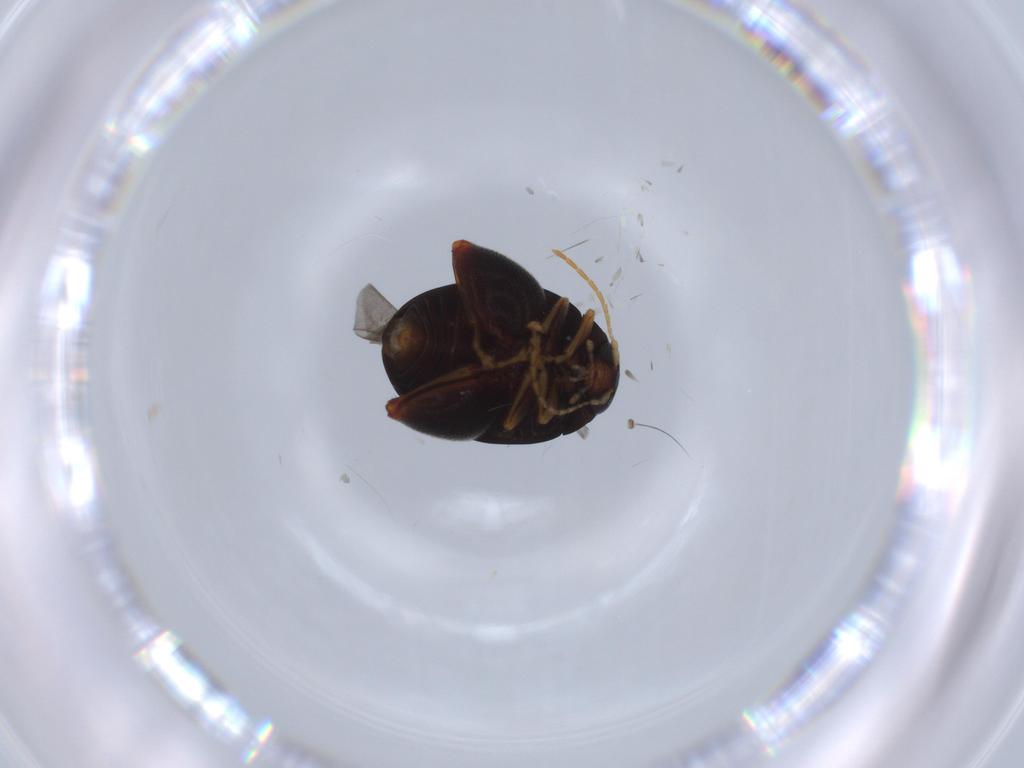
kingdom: Animalia
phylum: Arthropoda
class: Insecta
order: Coleoptera
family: Chrysomelidae
